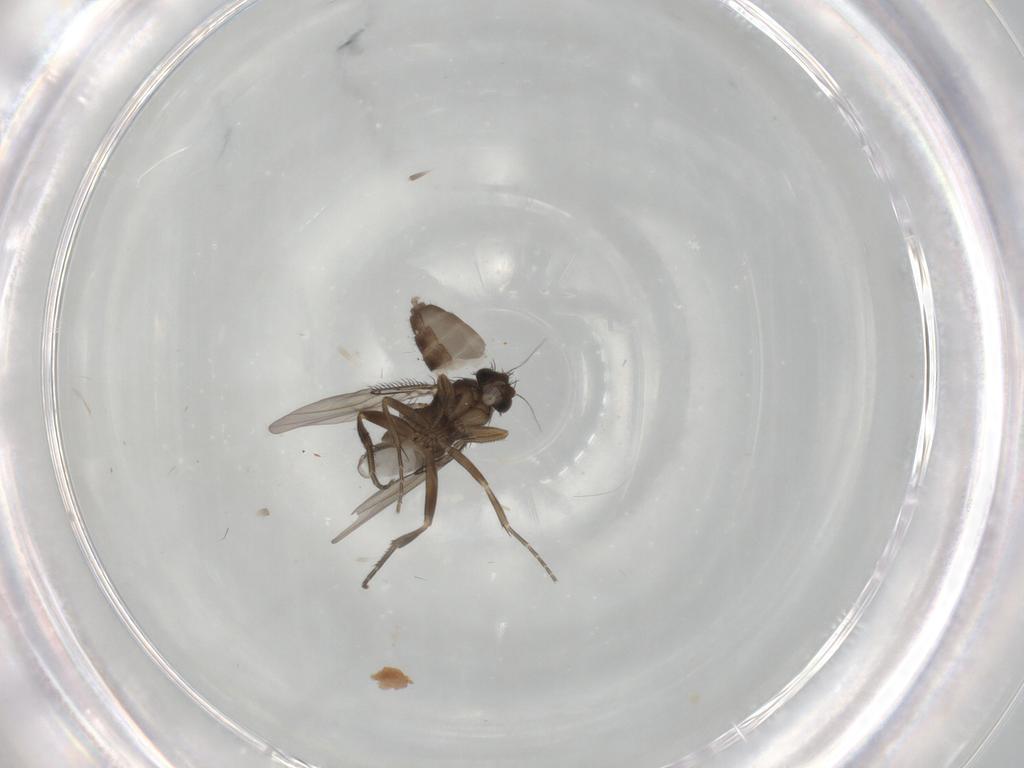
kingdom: Animalia
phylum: Arthropoda
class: Insecta
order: Diptera
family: Phoridae
